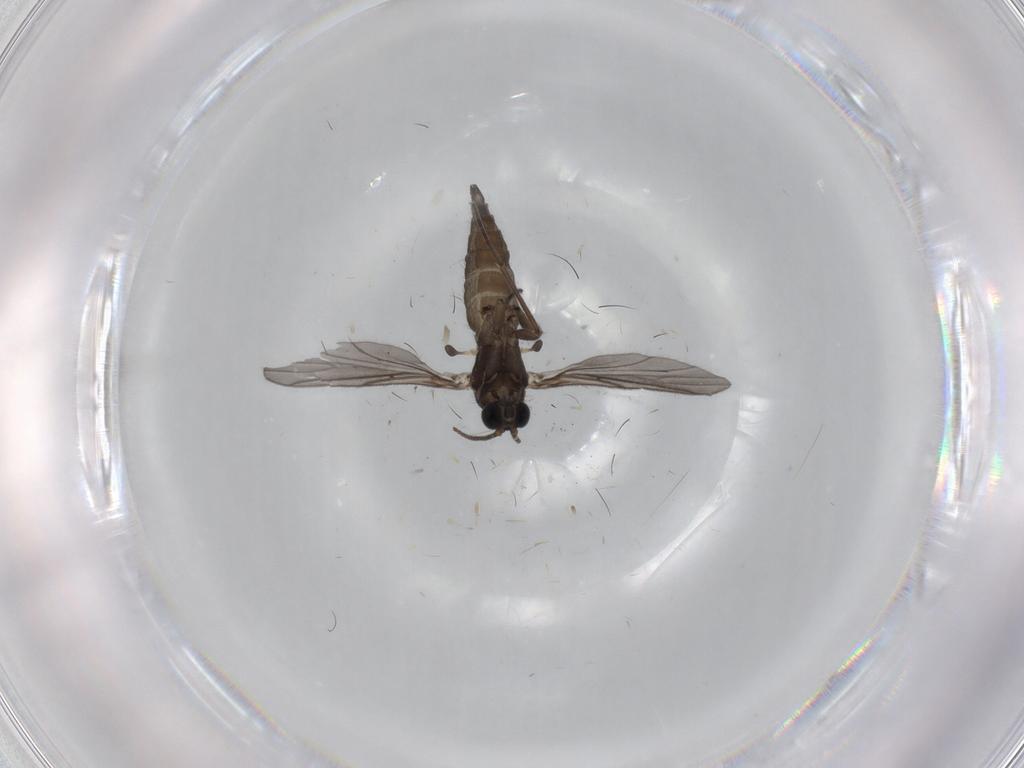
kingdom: Animalia
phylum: Arthropoda
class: Insecta
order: Diptera
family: Sciaridae
